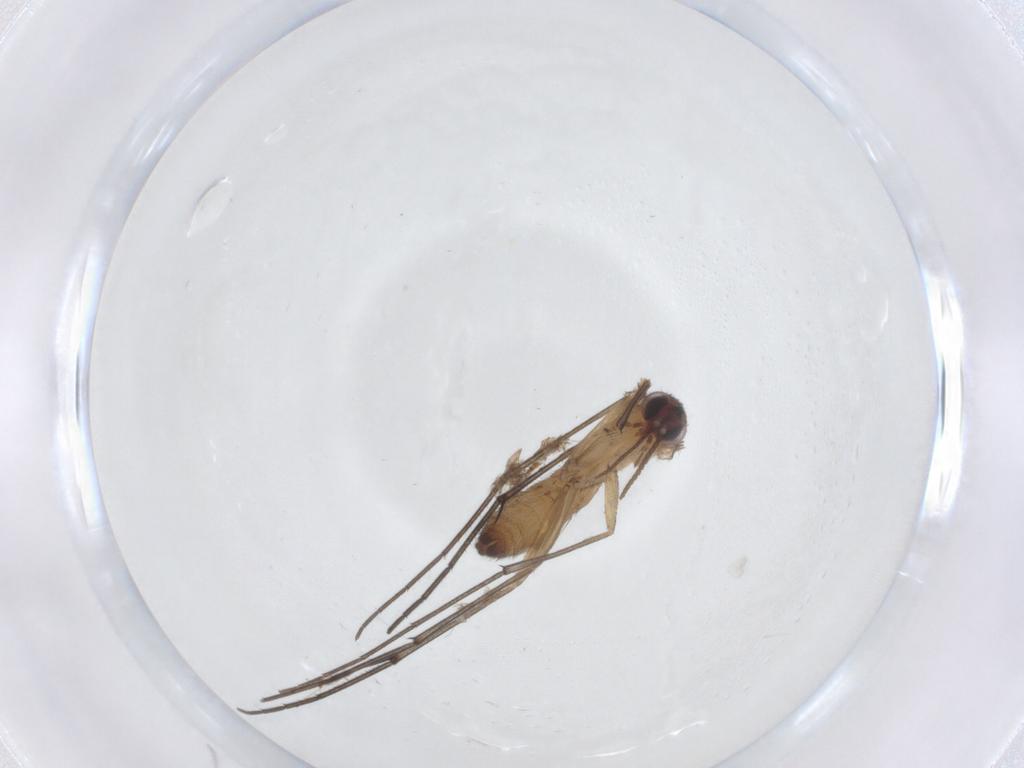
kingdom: Animalia
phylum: Arthropoda
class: Insecta
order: Diptera
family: Keroplatidae
